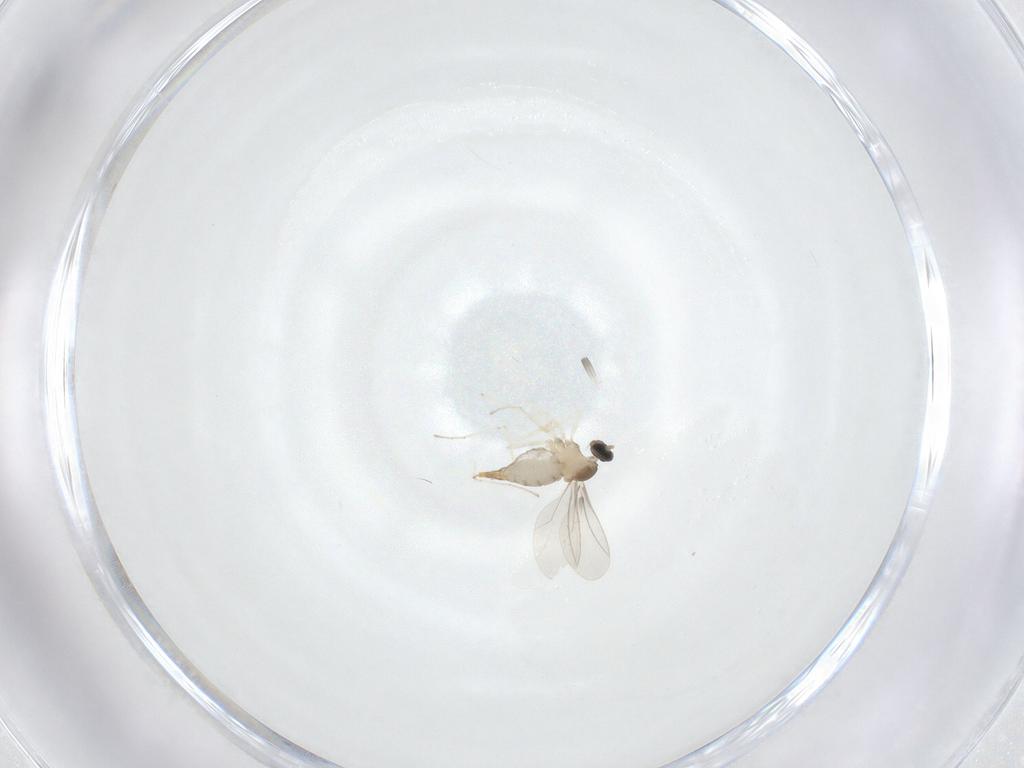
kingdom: Animalia
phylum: Arthropoda
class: Insecta
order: Diptera
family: Cecidomyiidae
